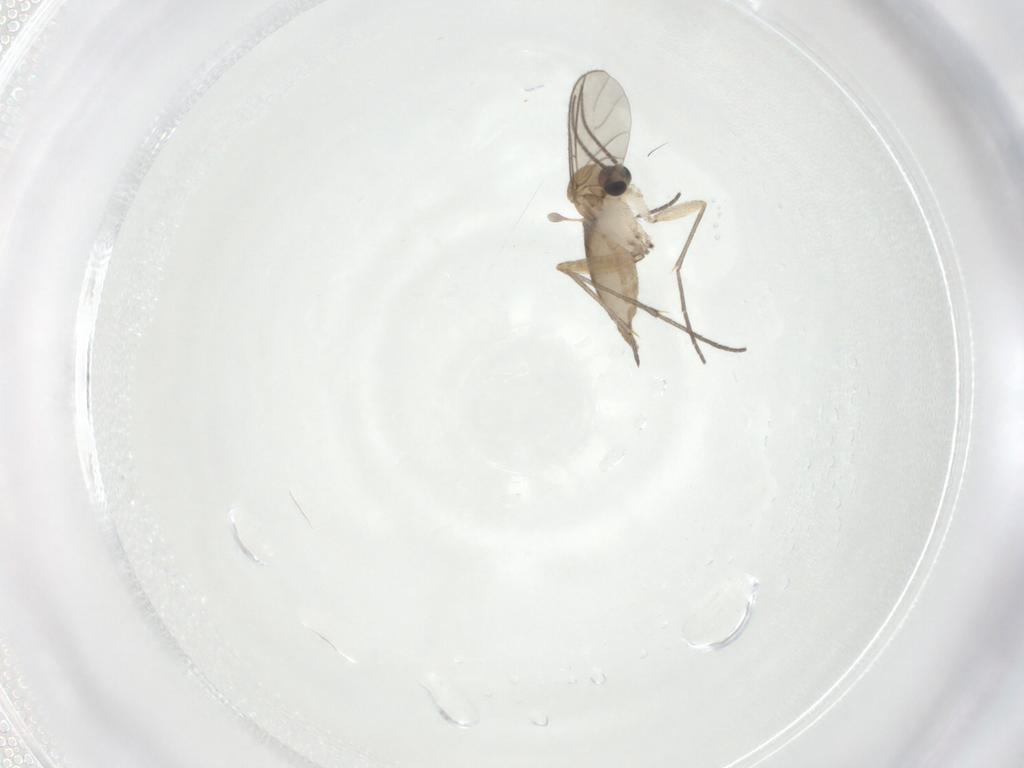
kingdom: Animalia
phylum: Arthropoda
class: Insecta
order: Diptera
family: Sciaridae
